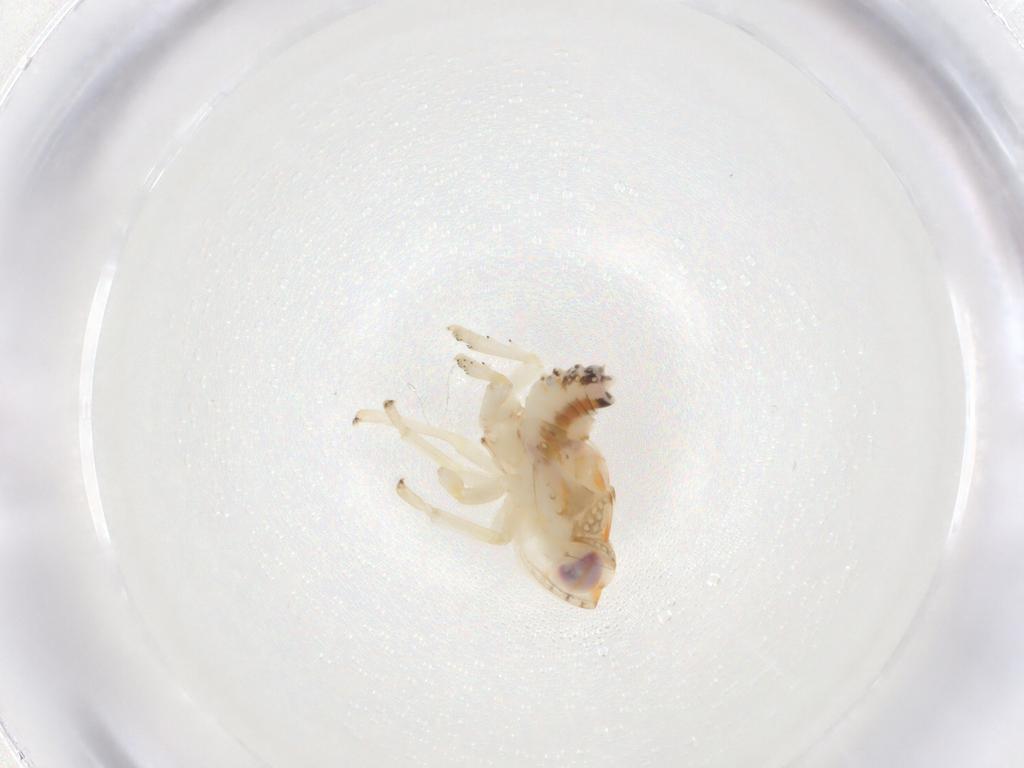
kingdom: Animalia
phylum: Arthropoda
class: Insecta
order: Hemiptera
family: Nogodinidae
